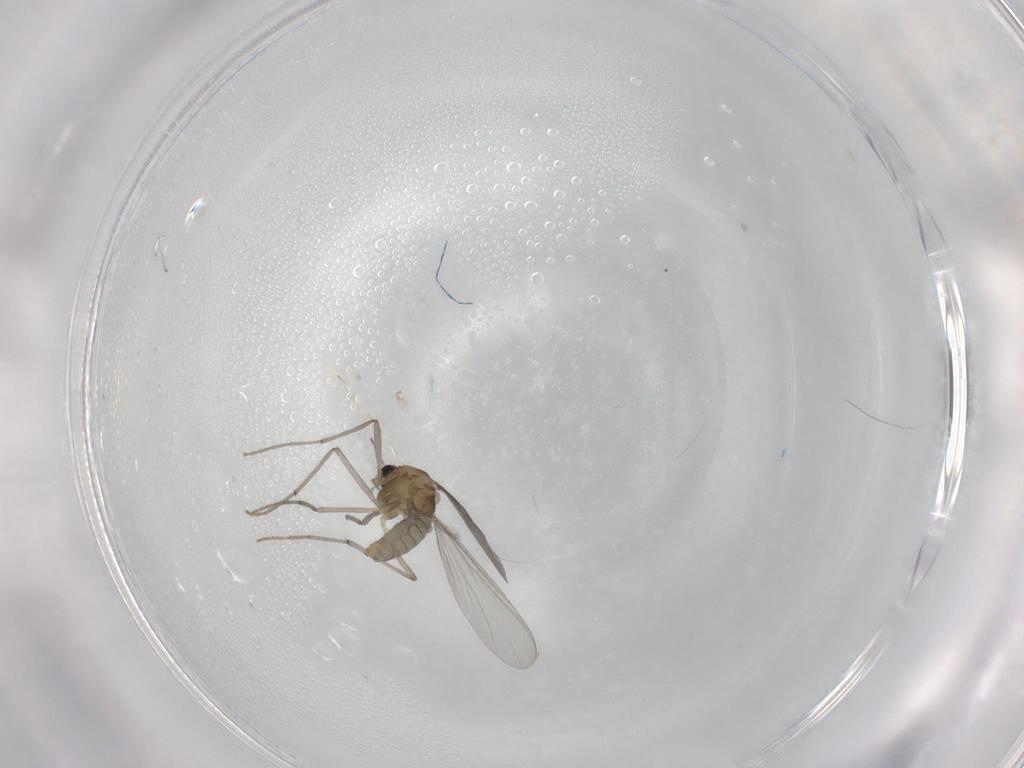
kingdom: Animalia
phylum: Arthropoda
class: Insecta
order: Diptera
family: Chironomidae
